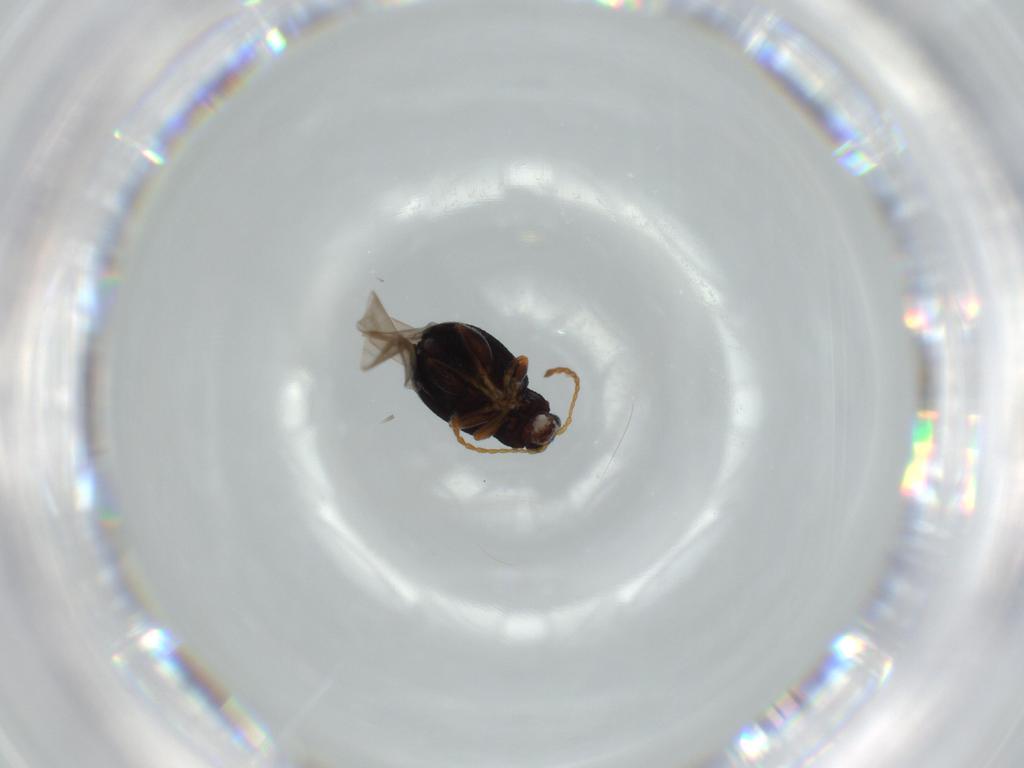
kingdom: Animalia
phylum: Arthropoda
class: Insecta
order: Coleoptera
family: Chrysomelidae
